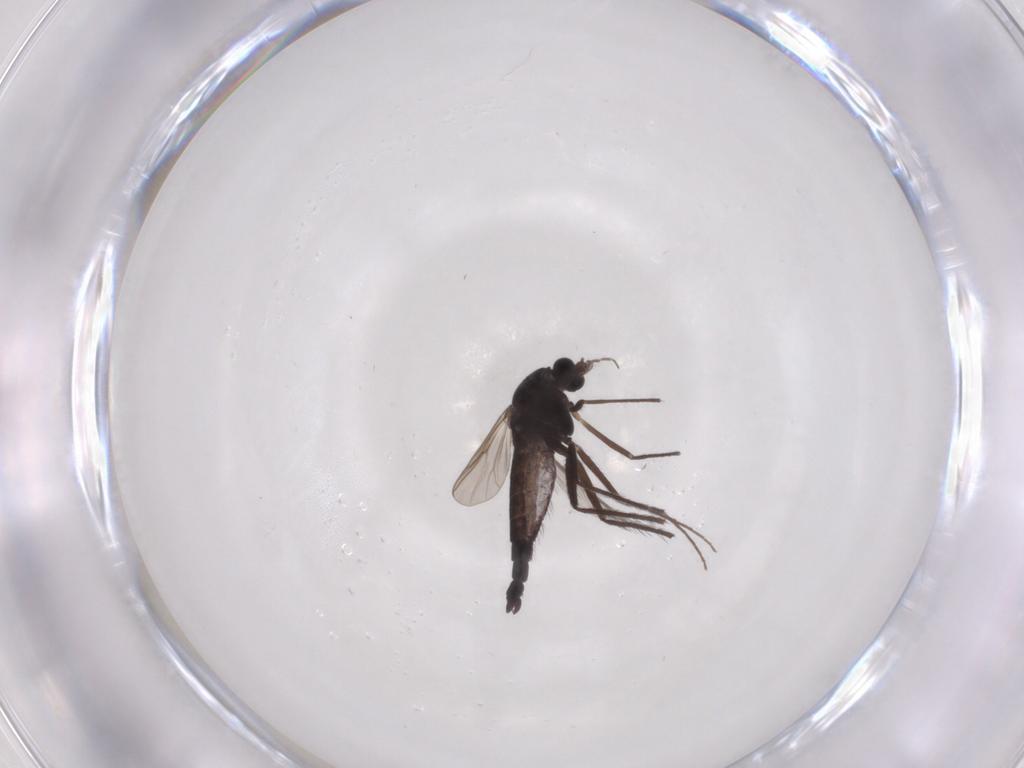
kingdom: Animalia
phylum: Arthropoda
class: Insecta
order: Diptera
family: Chironomidae
